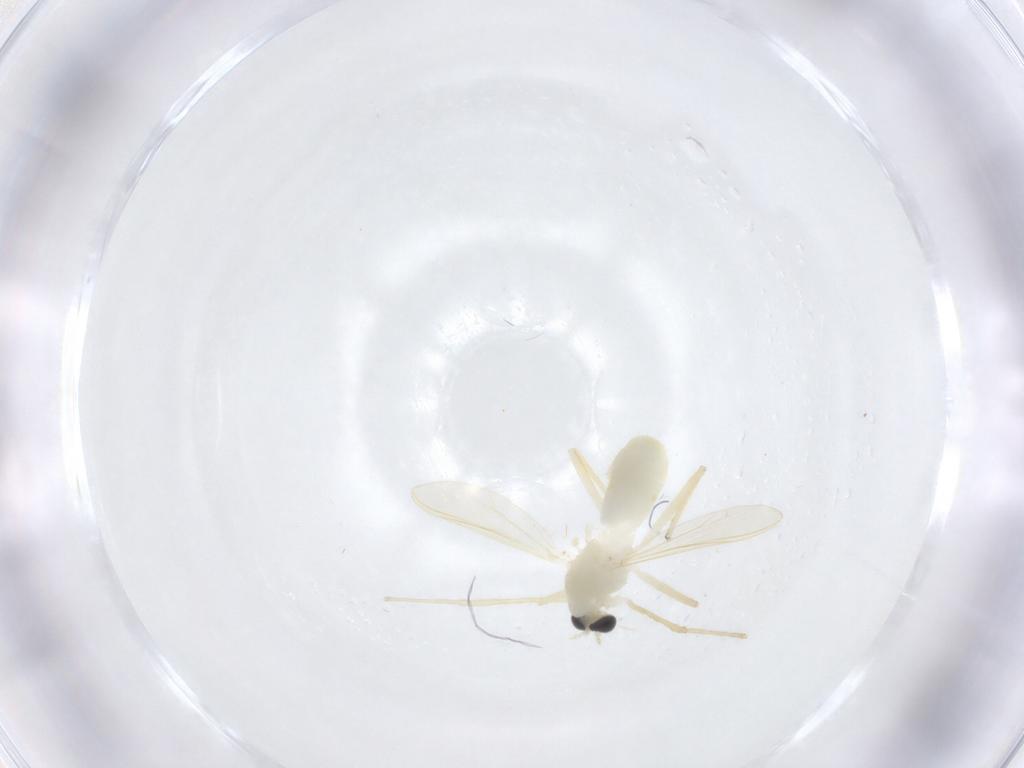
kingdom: Animalia
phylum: Arthropoda
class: Insecta
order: Diptera
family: Chironomidae
